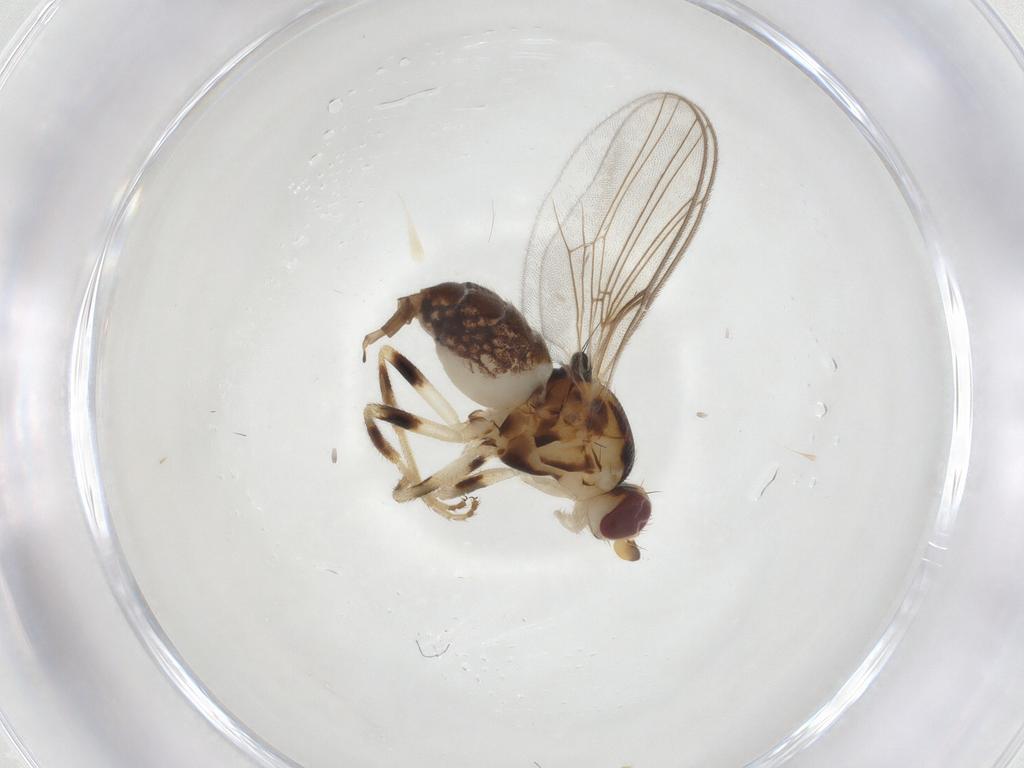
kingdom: Animalia
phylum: Arthropoda
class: Insecta
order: Diptera
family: Chloropidae
